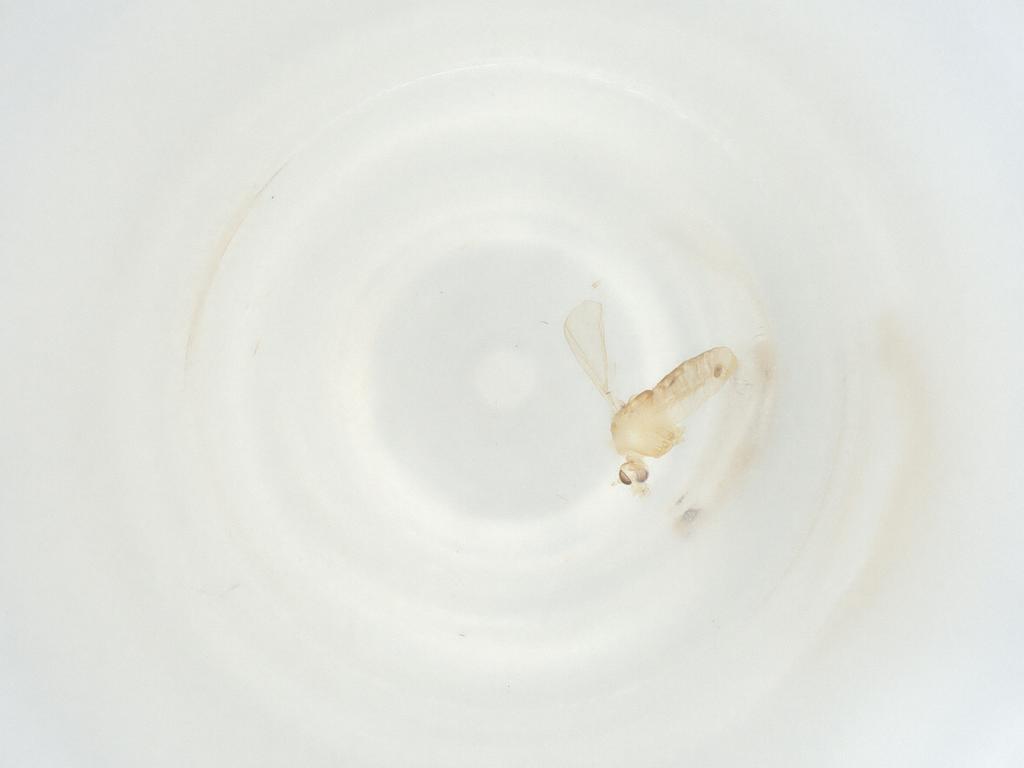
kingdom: Animalia
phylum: Arthropoda
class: Insecta
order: Diptera
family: Chironomidae
